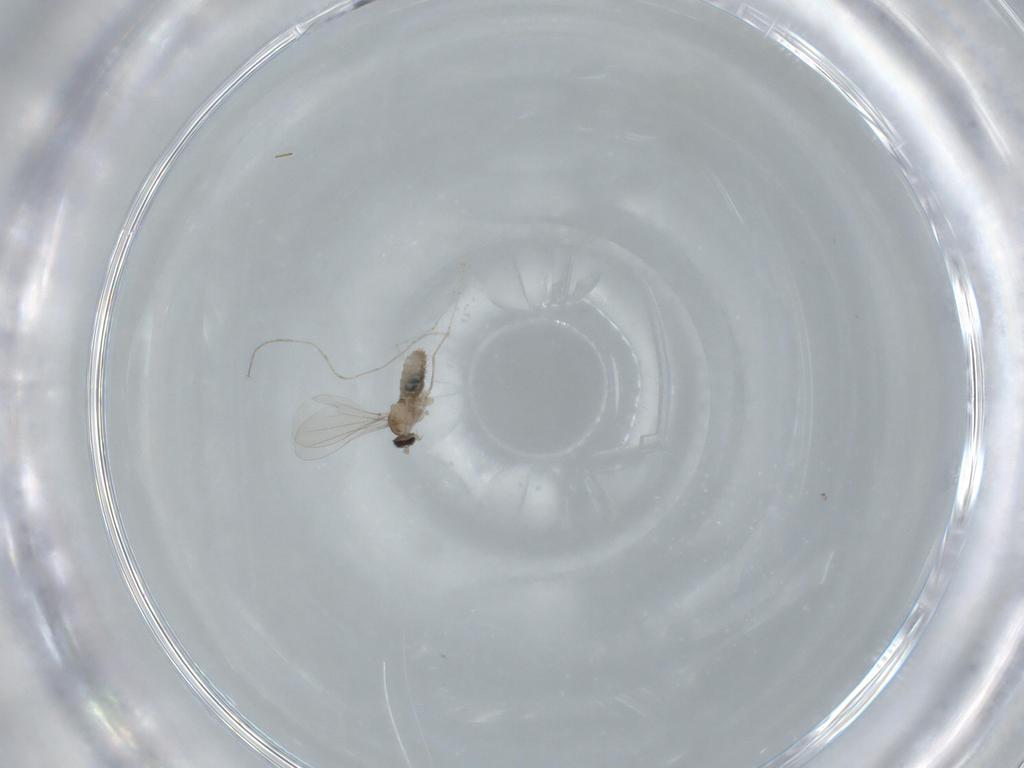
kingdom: Animalia
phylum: Arthropoda
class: Insecta
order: Diptera
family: Cecidomyiidae
